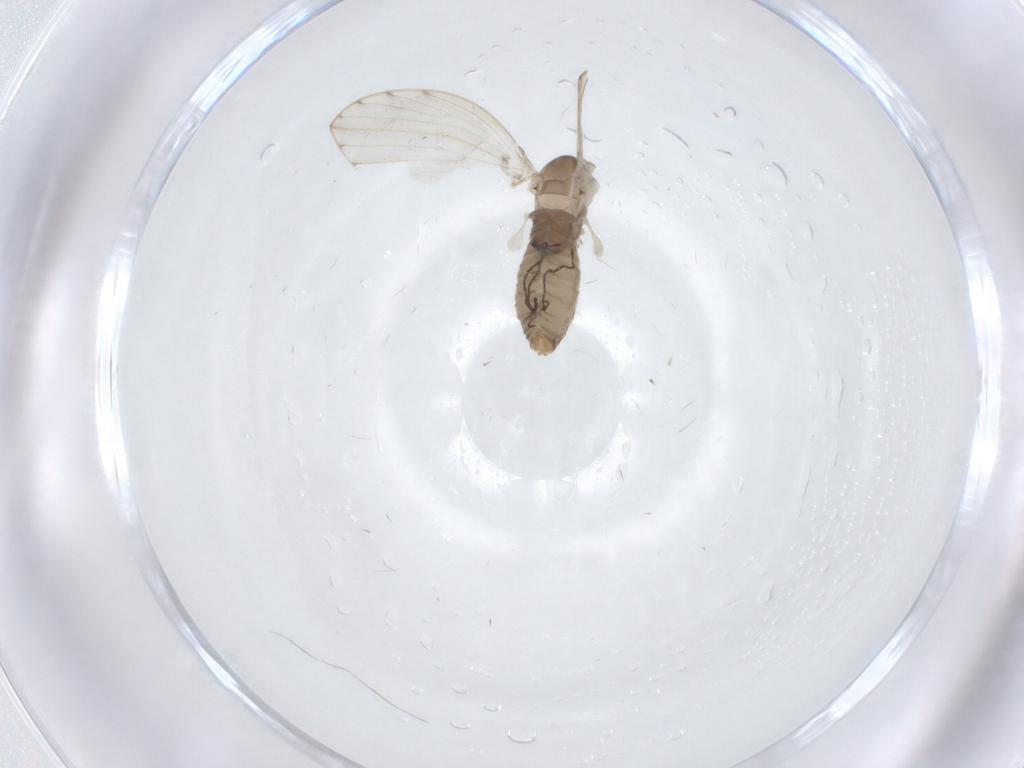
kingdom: Animalia
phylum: Arthropoda
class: Insecta
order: Diptera
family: Psychodidae
